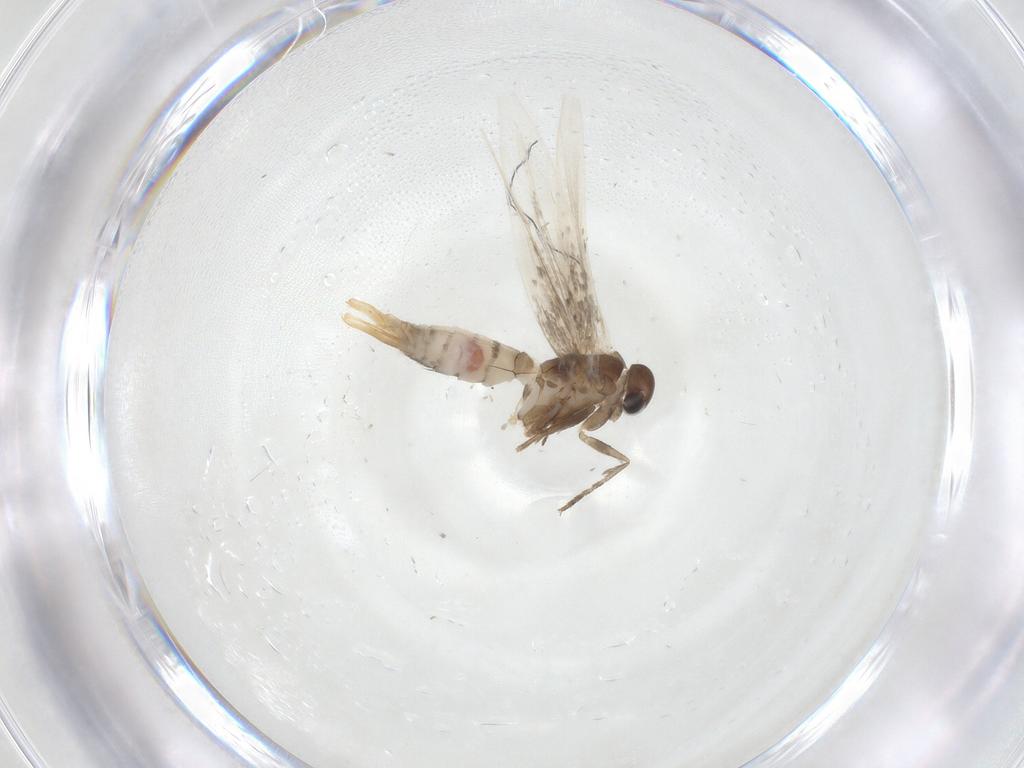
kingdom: Animalia
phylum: Arthropoda
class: Insecta
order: Lepidoptera
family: Elachistidae
